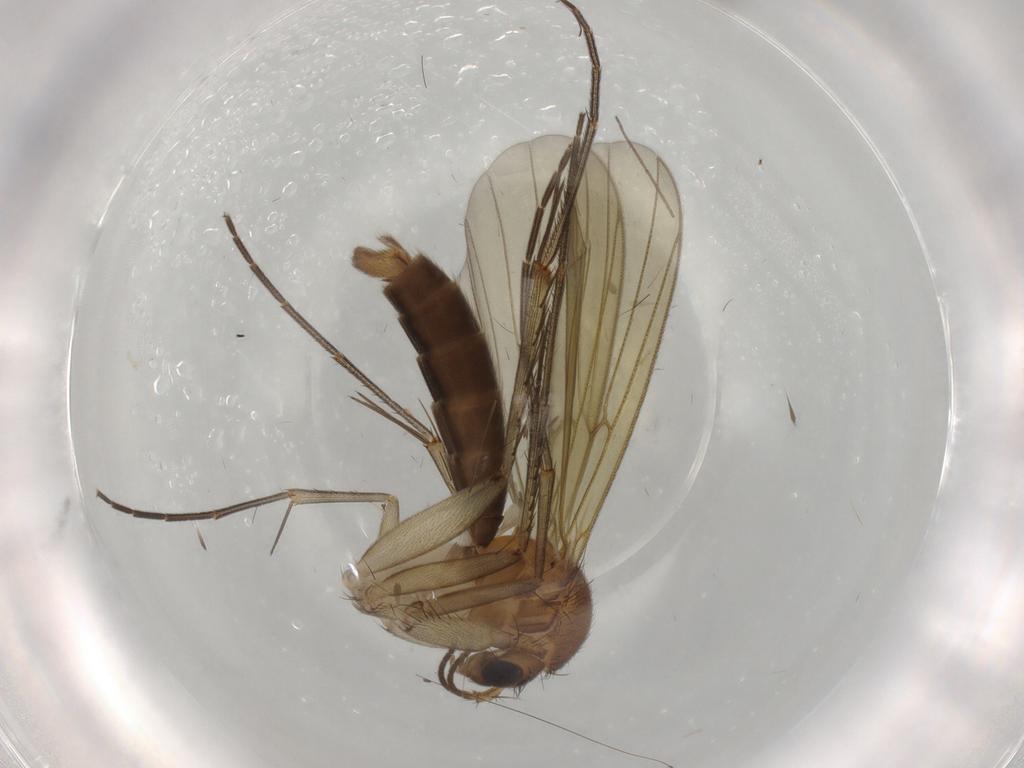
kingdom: Animalia
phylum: Arthropoda
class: Insecta
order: Diptera
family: Mycetophilidae
